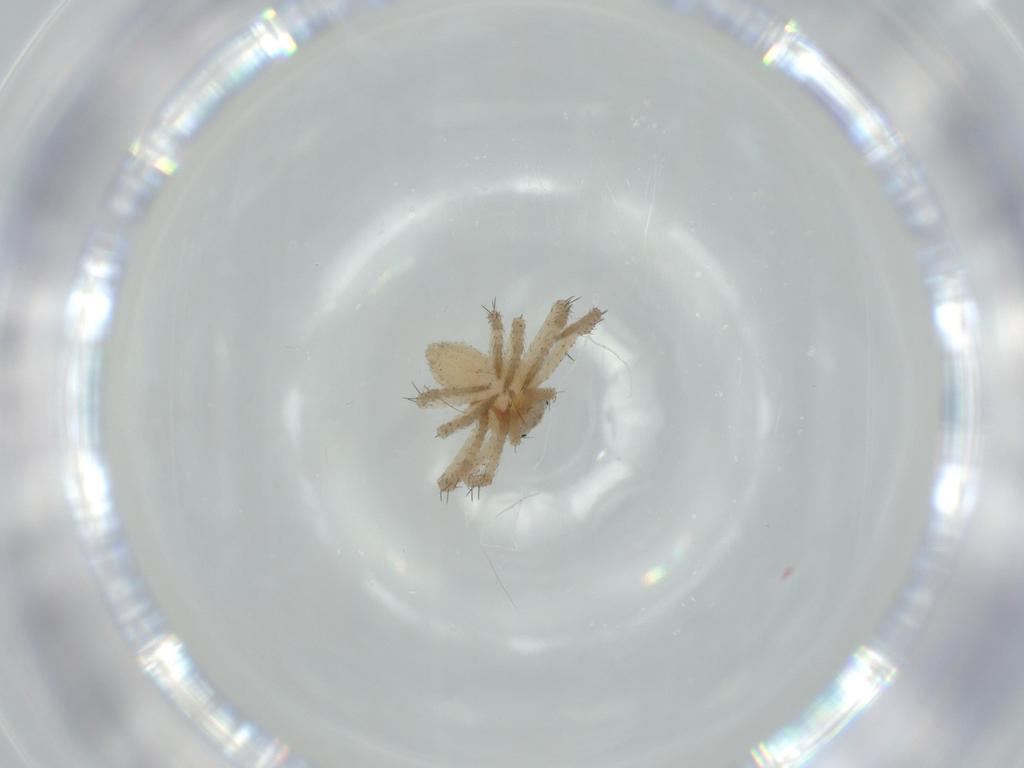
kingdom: Animalia
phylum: Arthropoda
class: Arachnida
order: Araneae
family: Thomisidae
